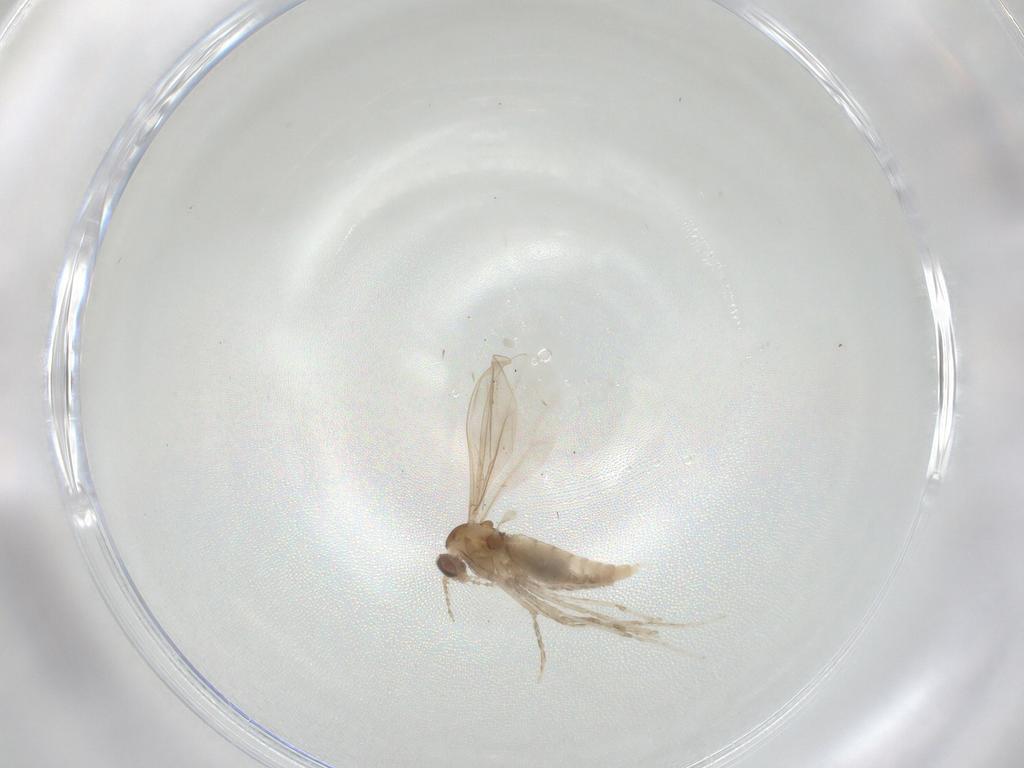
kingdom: Animalia
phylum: Arthropoda
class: Insecta
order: Diptera
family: Cecidomyiidae
